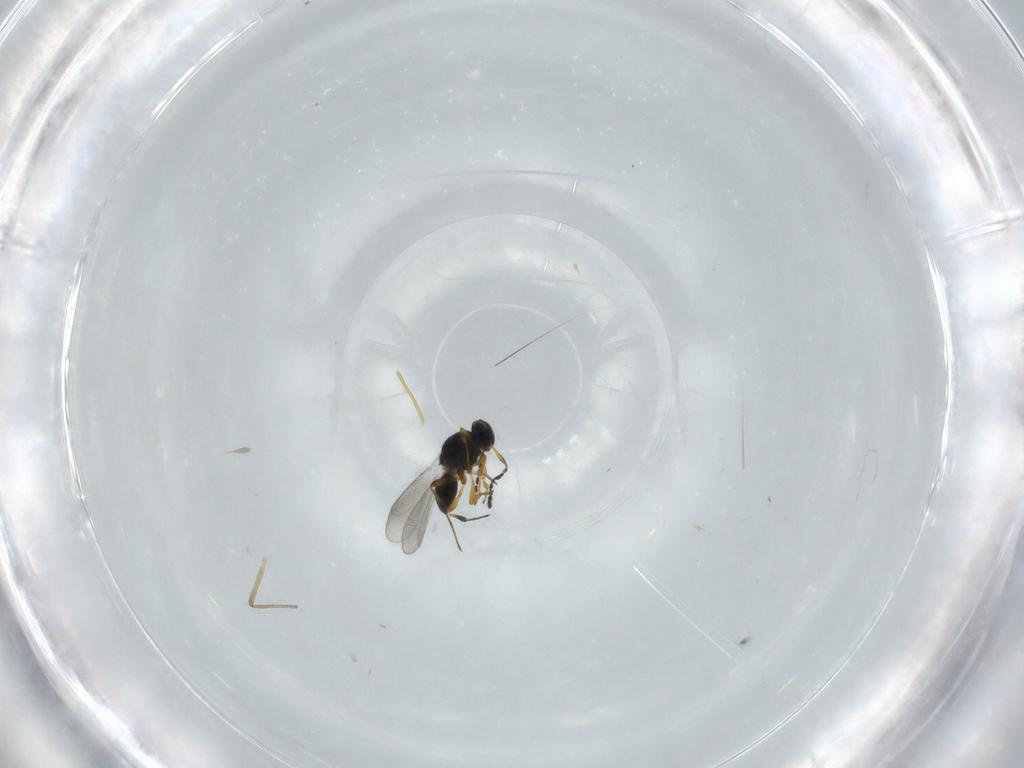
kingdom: Animalia
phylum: Arthropoda
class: Insecta
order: Hymenoptera
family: Platygastridae
